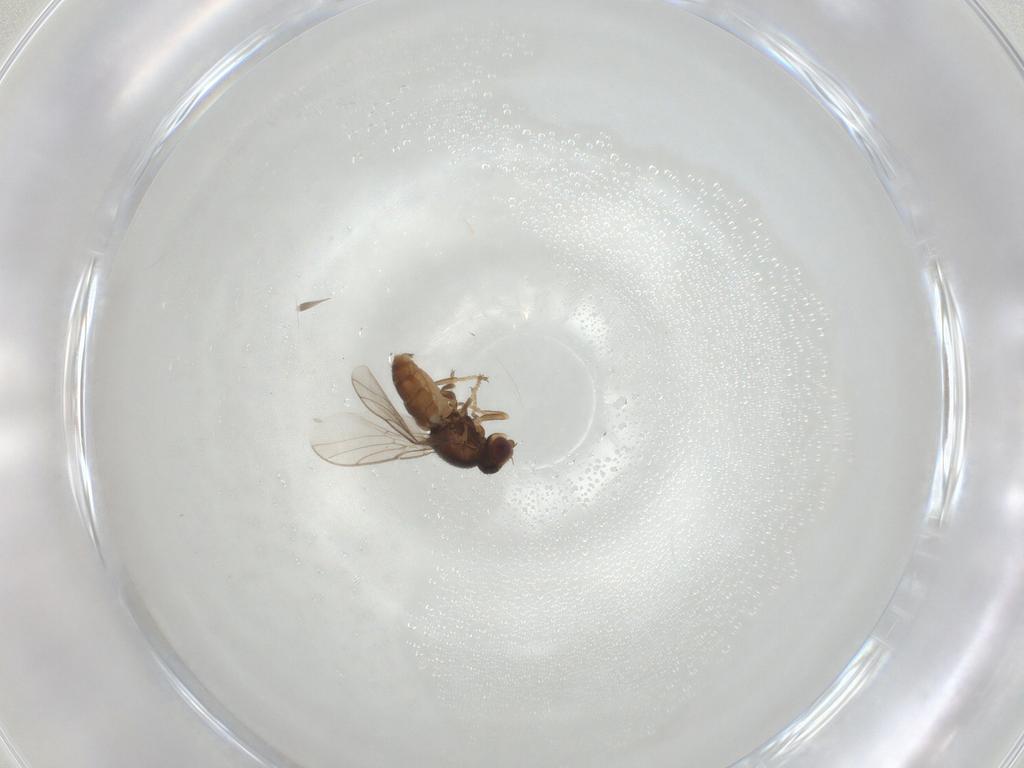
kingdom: Animalia
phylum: Arthropoda
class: Insecta
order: Diptera
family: Chloropidae
